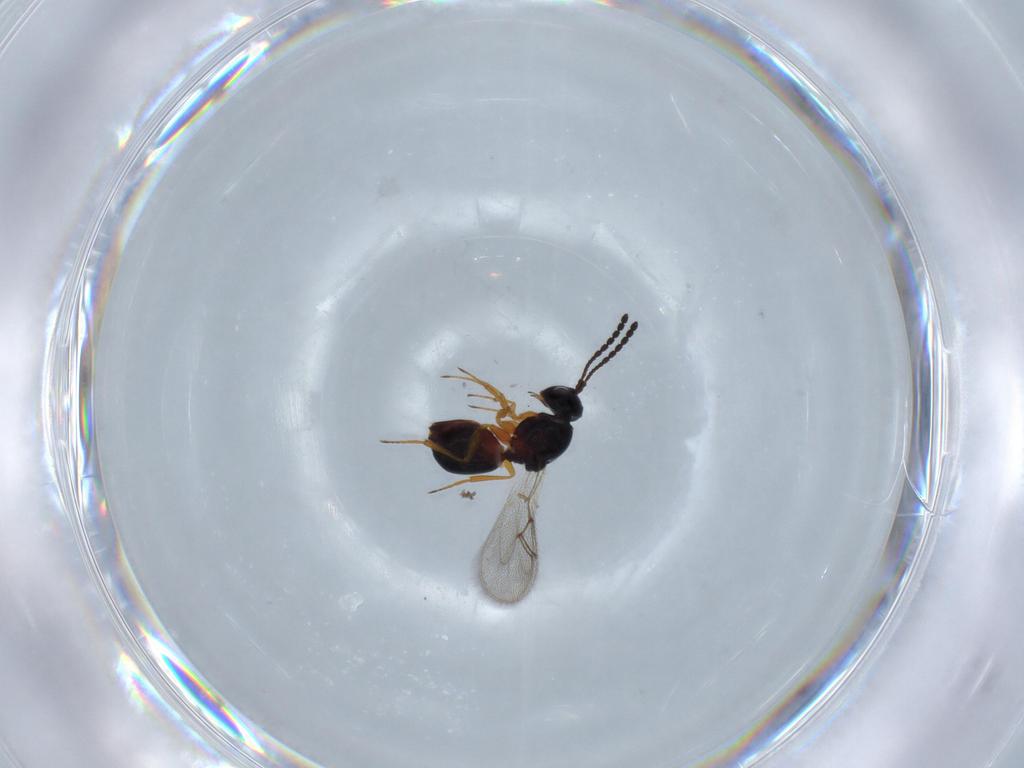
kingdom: Animalia
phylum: Arthropoda
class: Insecta
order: Hymenoptera
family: Figitidae
